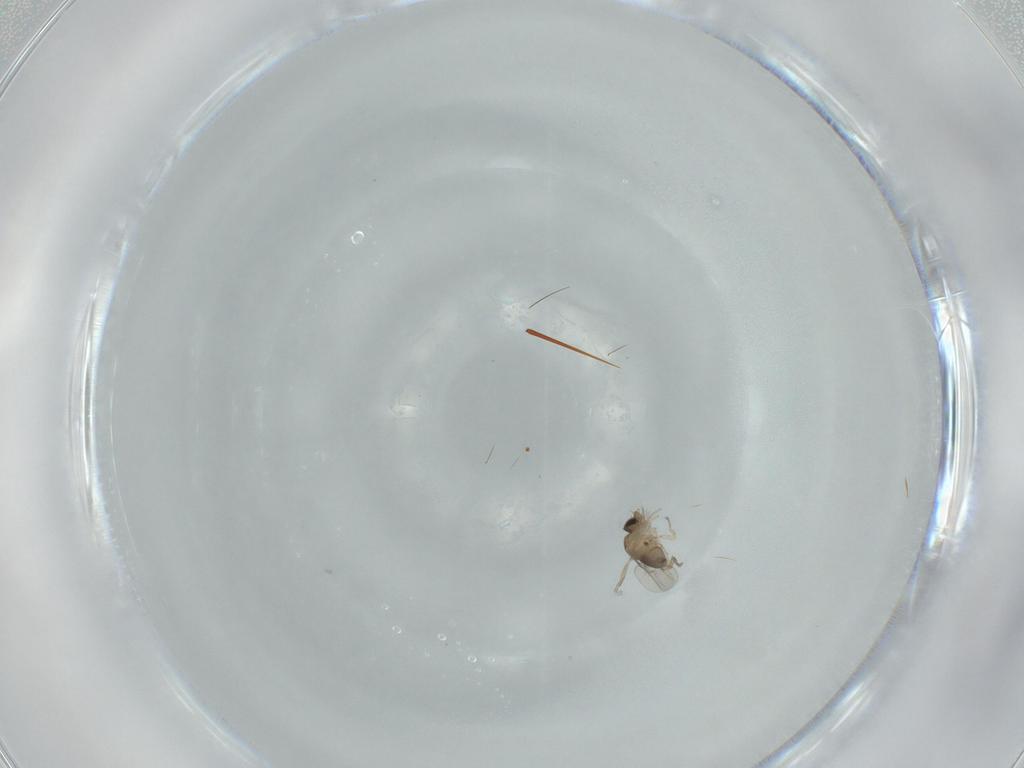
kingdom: Animalia
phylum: Arthropoda
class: Insecta
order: Diptera
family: Phoridae
